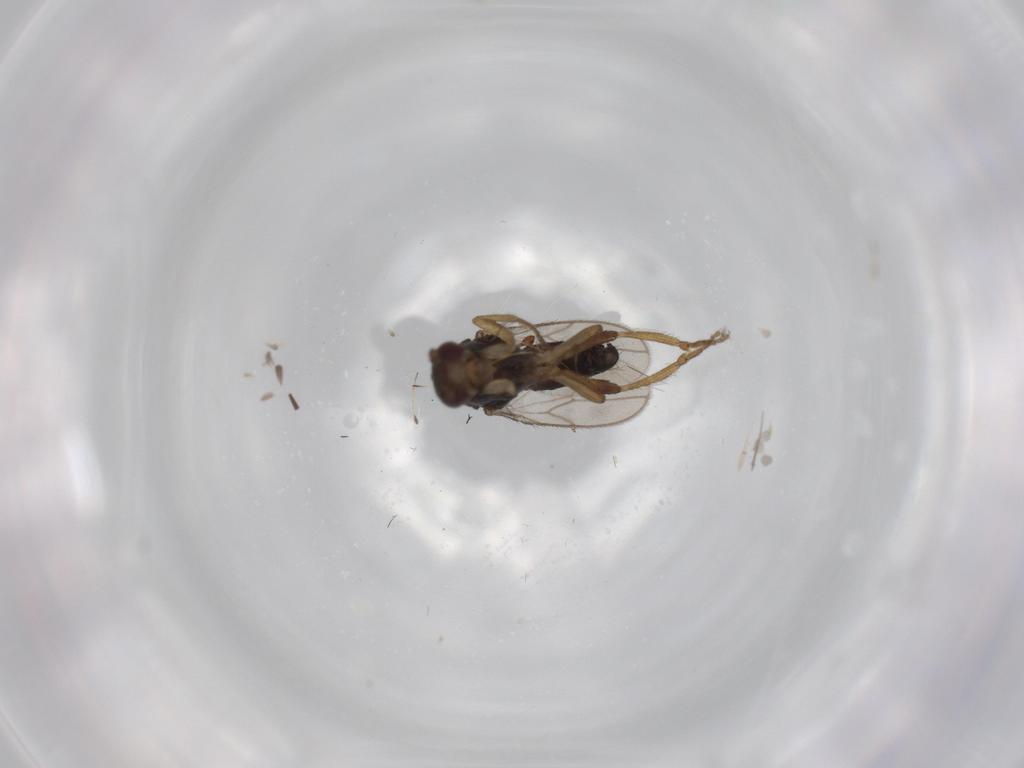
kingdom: Animalia
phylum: Arthropoda
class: Insecta
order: Diptera
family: Sphaeroceridae
